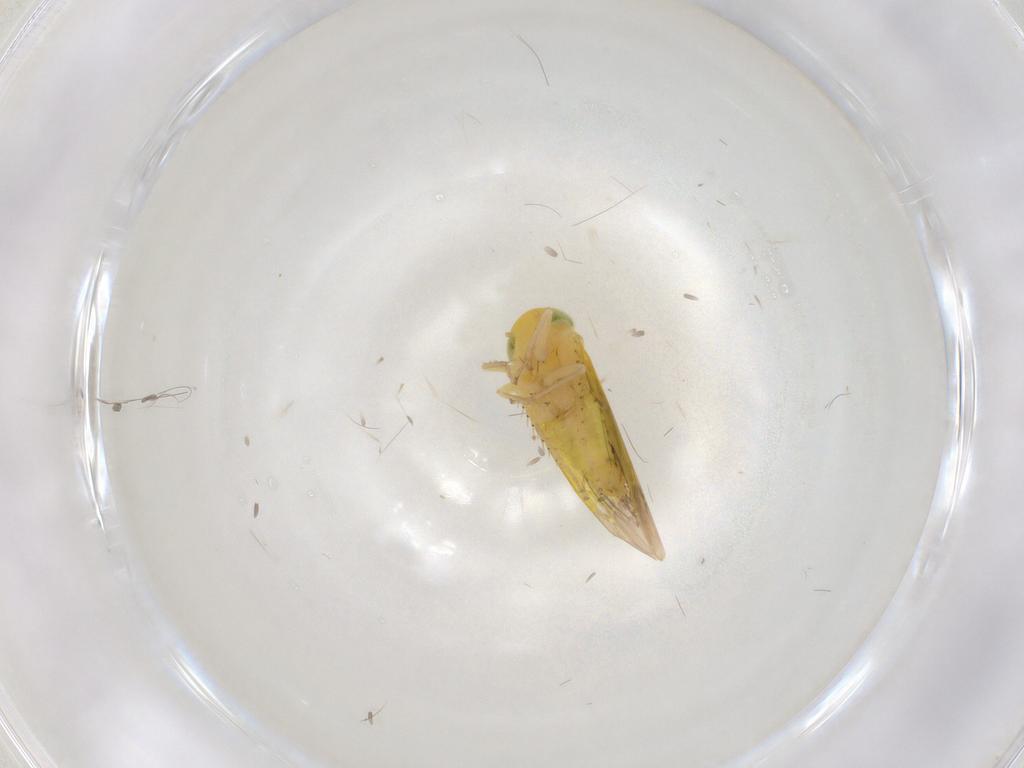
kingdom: Animalia
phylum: Arthropoda
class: Insecta
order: Hemiptera
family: Cicadellidae
